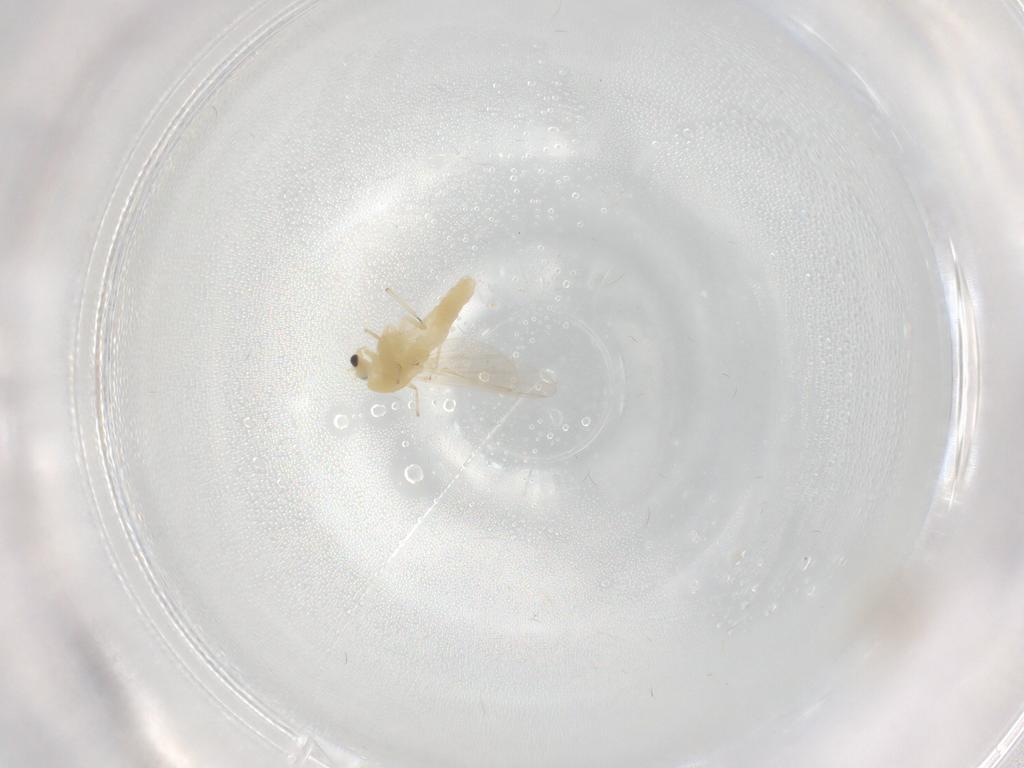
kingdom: Animalia
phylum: Arthropoda
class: Insecta
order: Diptera
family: Chironomidae
